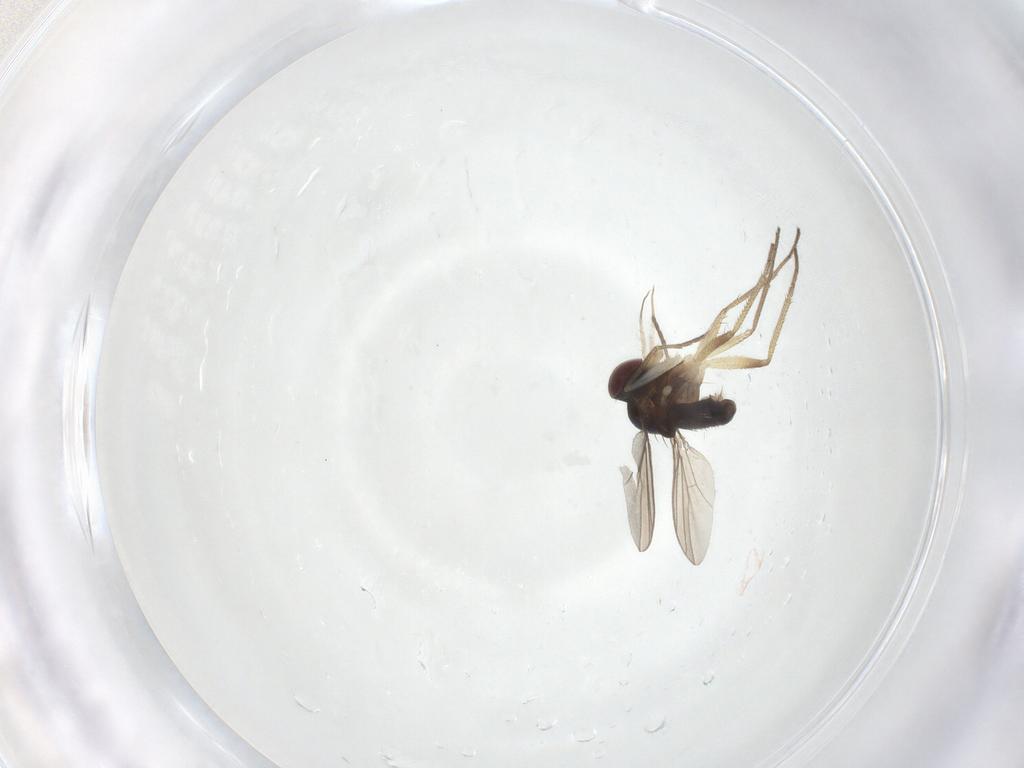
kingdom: Animalia
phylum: Arthropoda
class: Insecta
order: Diptera
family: Dolichopodidae
